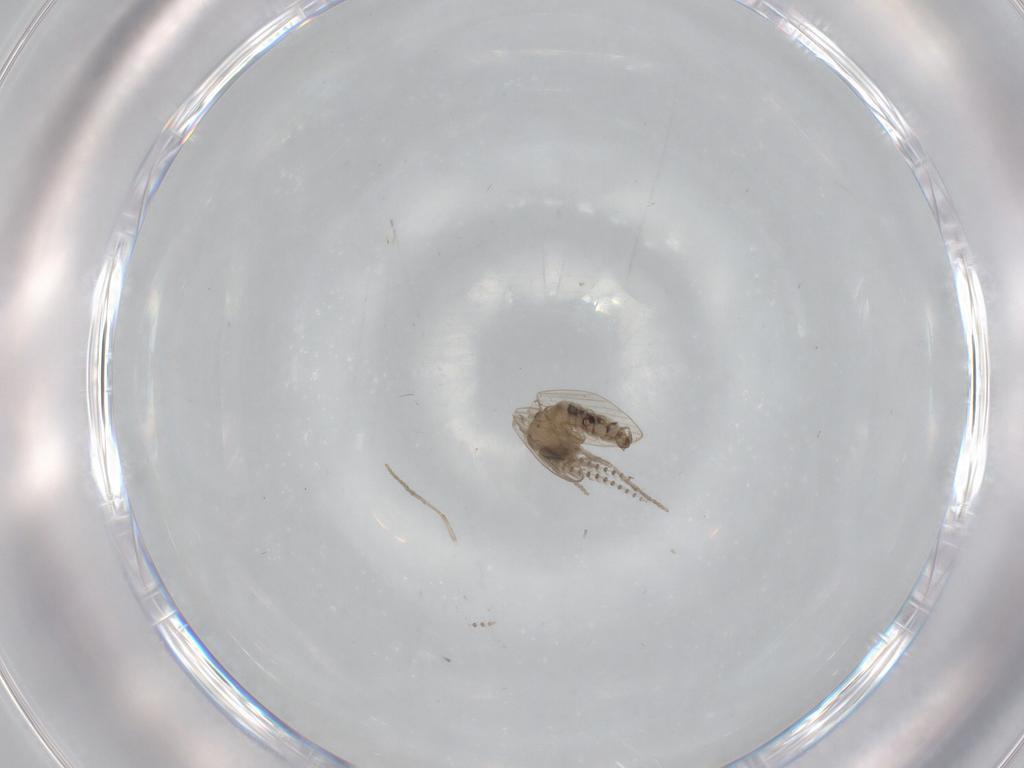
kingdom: Animalia
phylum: Arthropoda
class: Insecta
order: Diptera
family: Psychodidae
